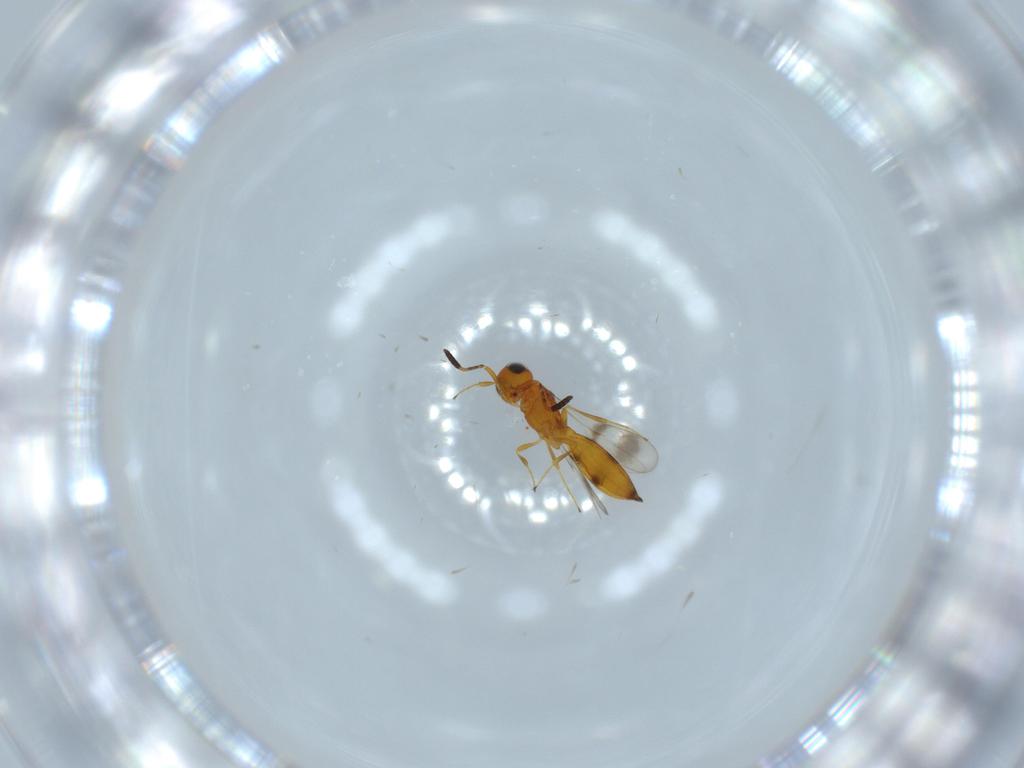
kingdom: Animalia
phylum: Arthropoda
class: Insecta
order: Hymenoptera
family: Scelionidae
